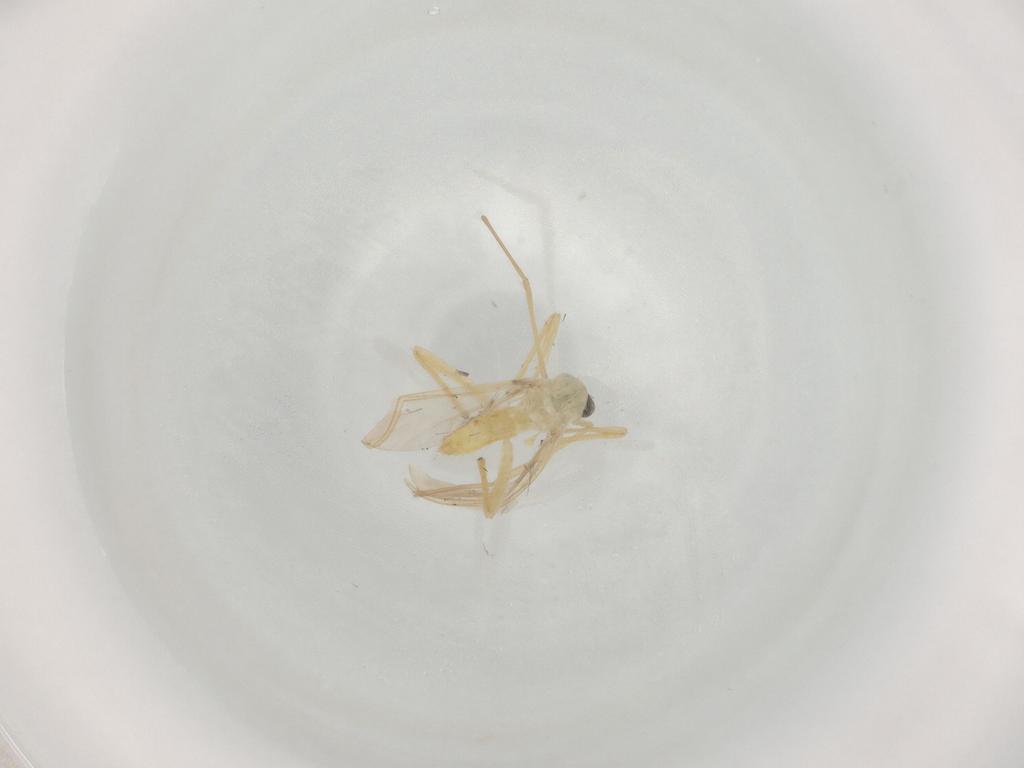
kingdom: Animalia
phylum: Arthropoda
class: Insecta
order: Diptera
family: Chironomidae
